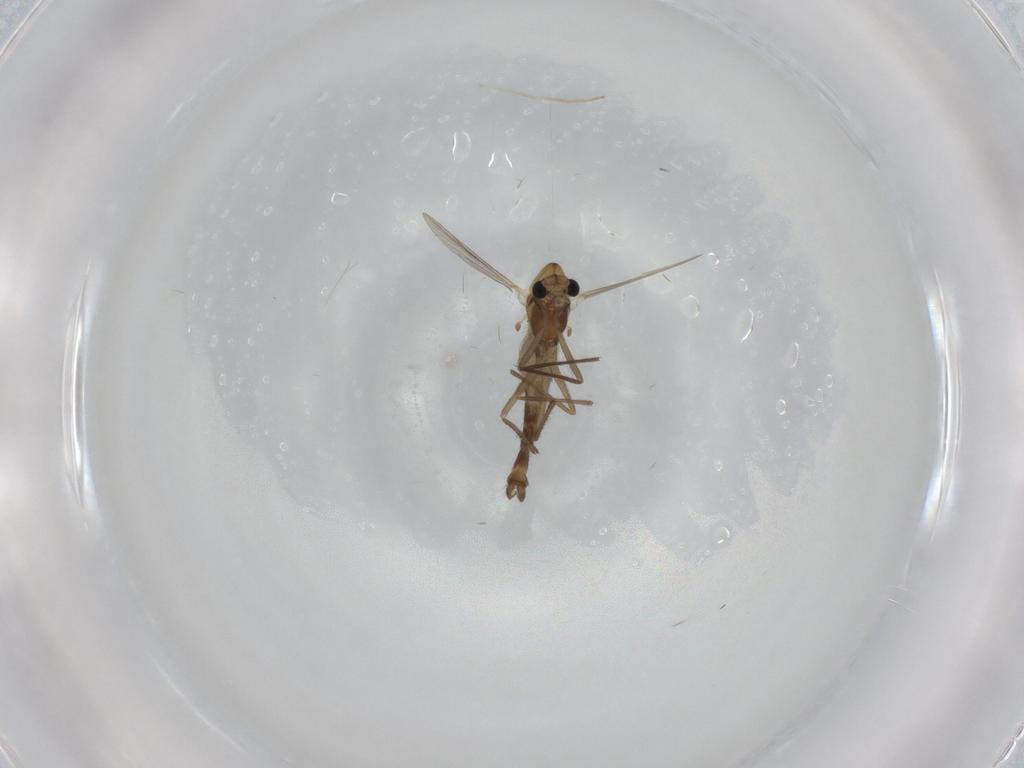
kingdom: Animalia
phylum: Arthropoda
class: Insecta
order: Diptera
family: Chironomidae
